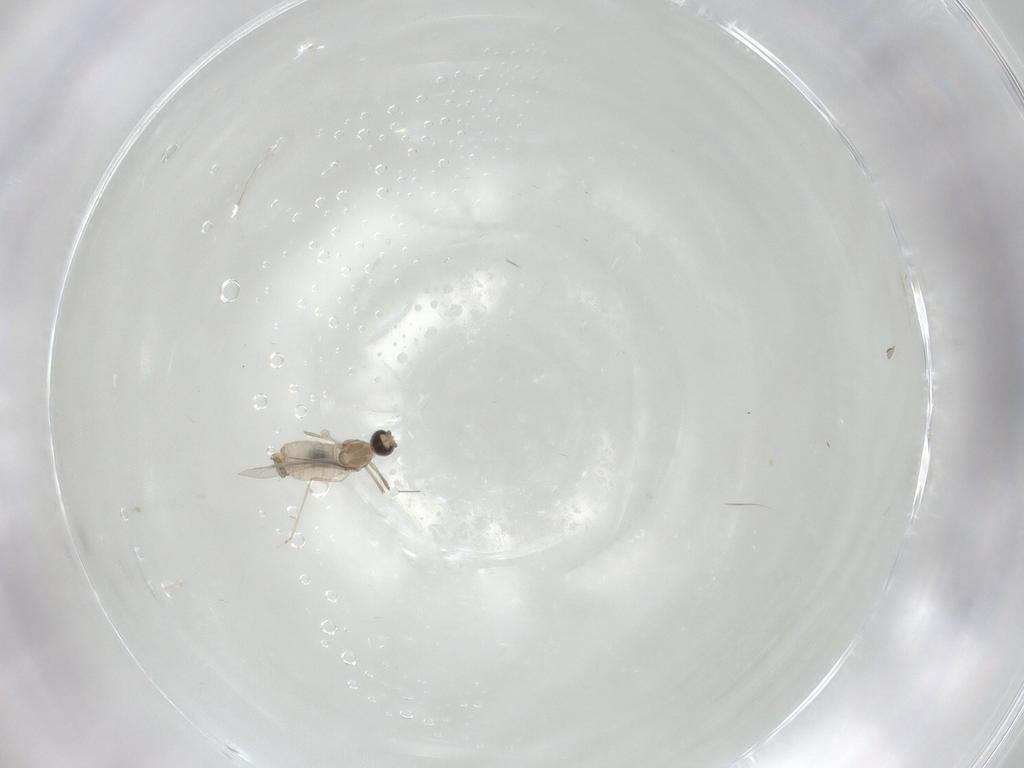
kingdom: Animalia
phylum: Arthropoda
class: Insecta
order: Diptera
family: Cecidomyiidae
